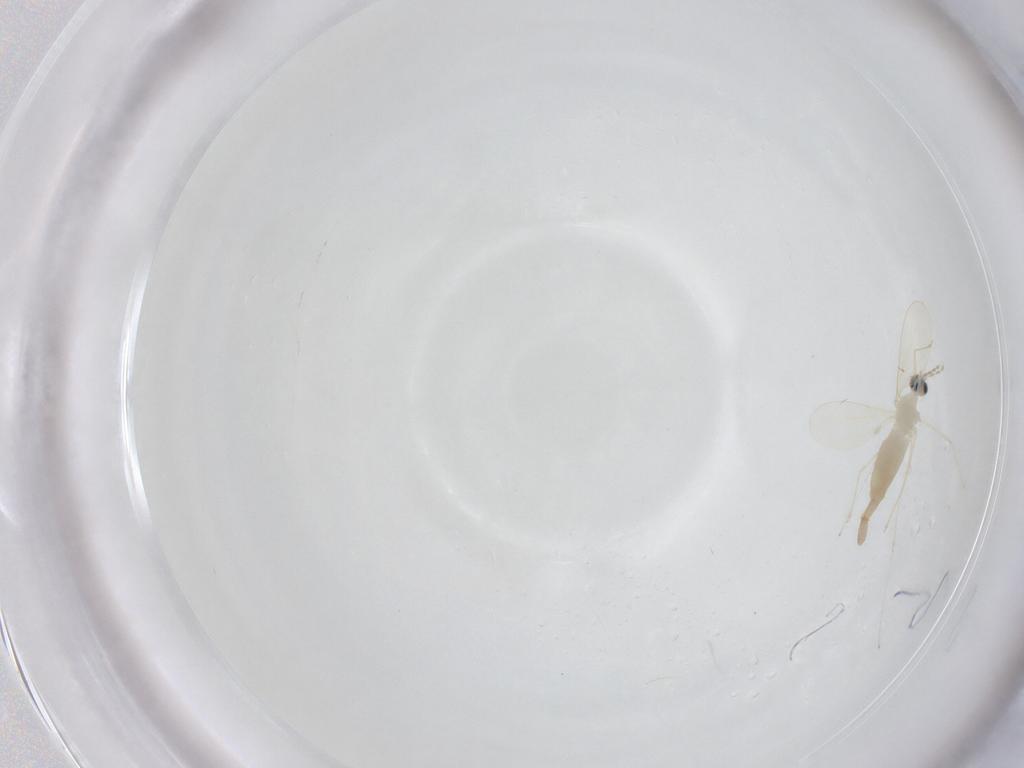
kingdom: Animalia
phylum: Arthropoda
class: Insecta
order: Diptera
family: Cecidomyiidae
